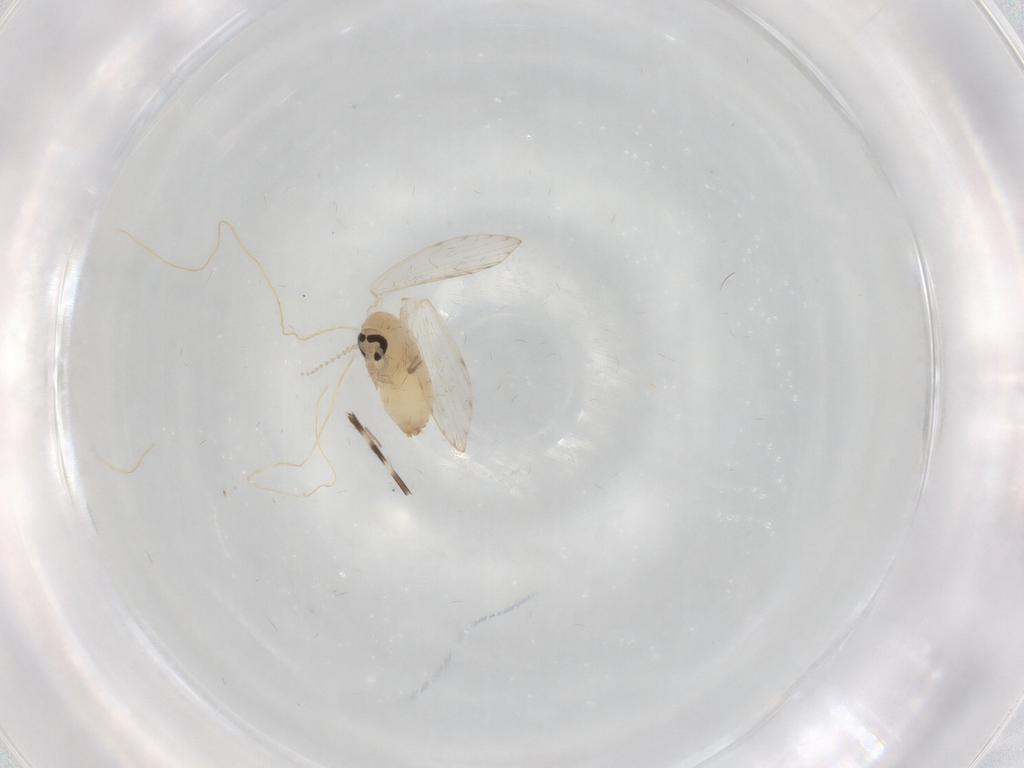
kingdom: Animalia
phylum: Arthropoda
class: Insecta
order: Diptera
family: Psychodidae
